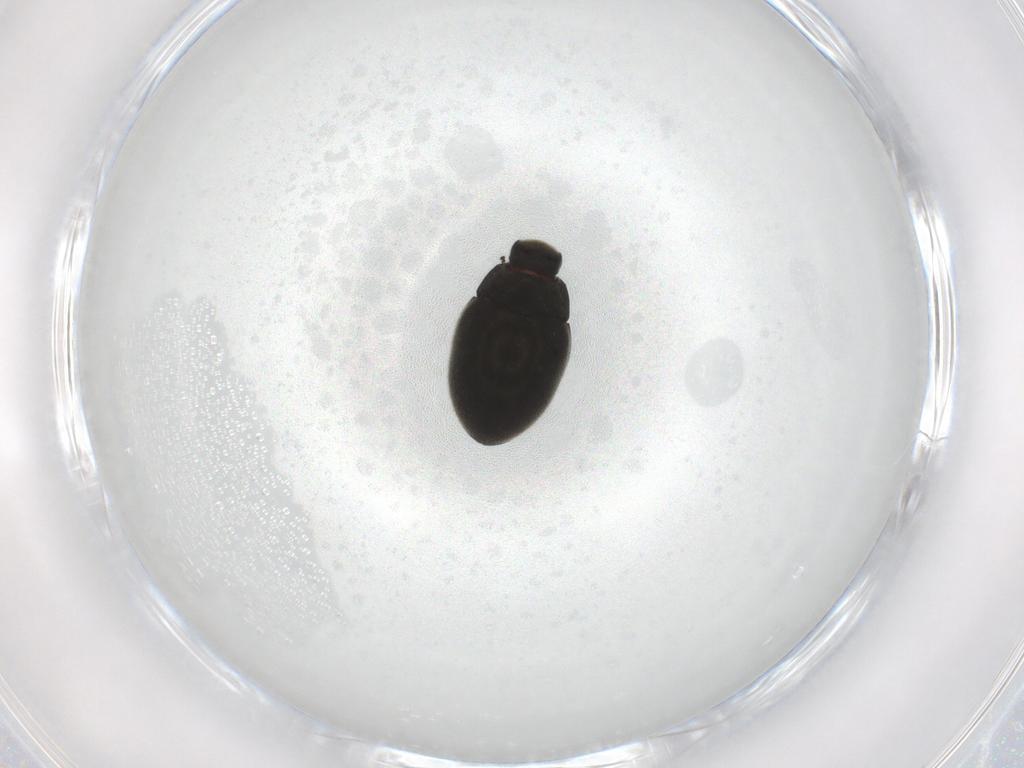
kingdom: Animalia
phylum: Arthropoda
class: Insecta
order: Coleoptera
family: Limnichidae
